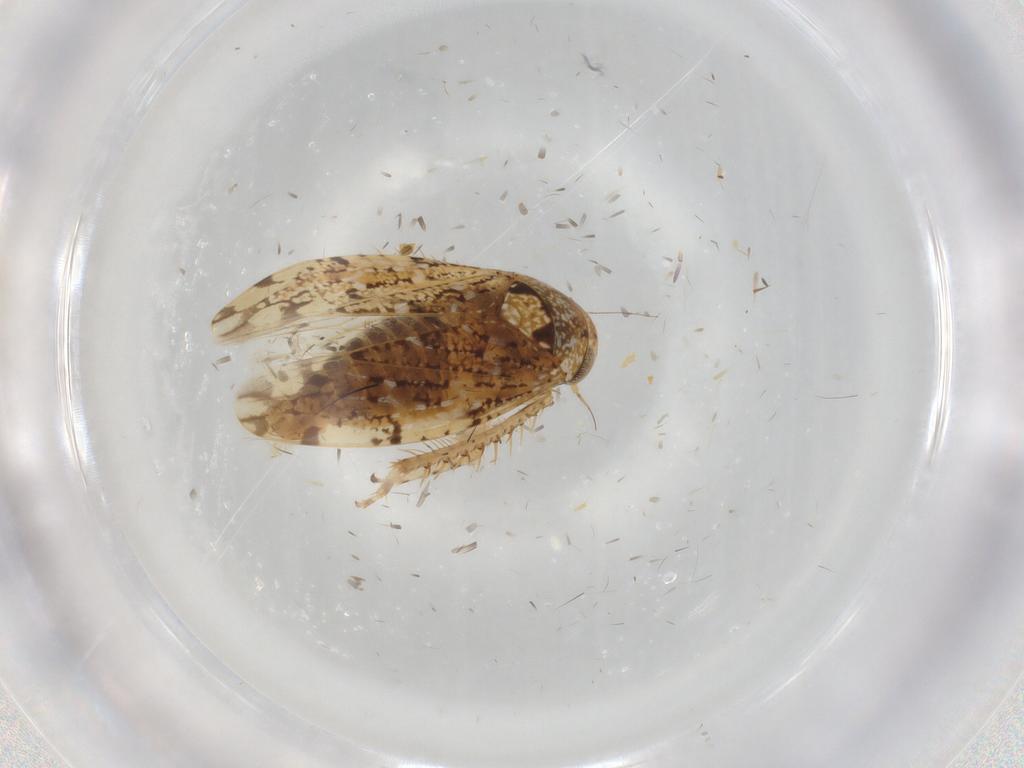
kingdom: Animalia
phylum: Arthropoda
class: Insecta
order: Hemiptera
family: Cicadellidae
